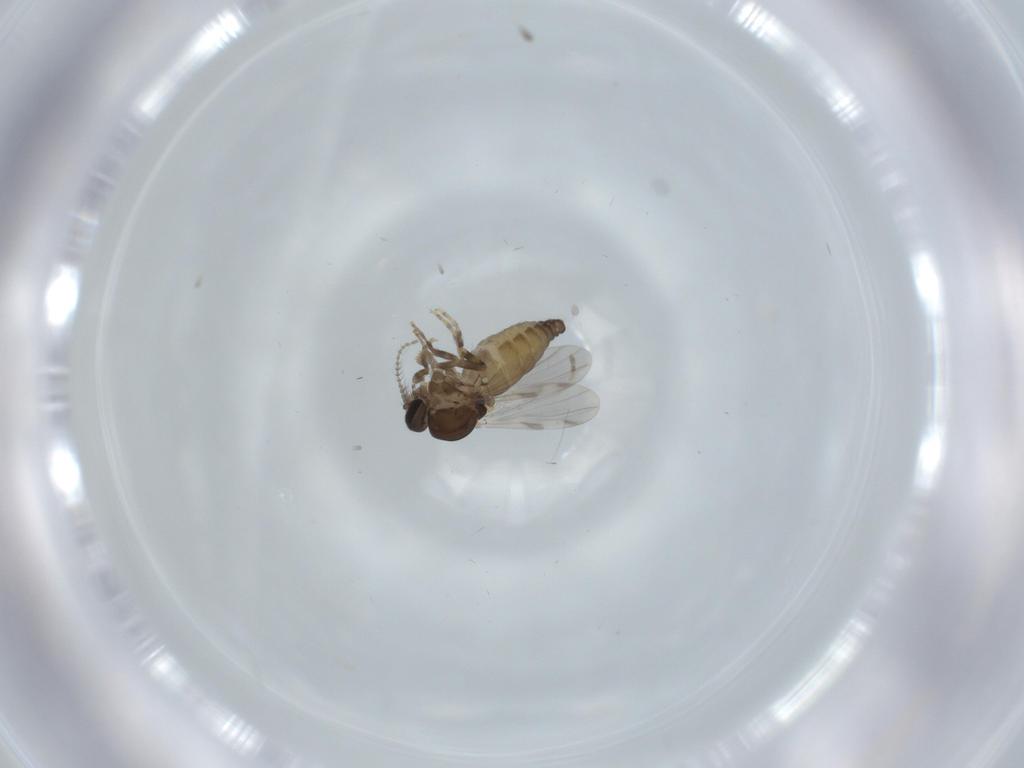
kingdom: Animalia
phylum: Arthropoda
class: Insecta
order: Diptera
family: Ceratopogonidae
